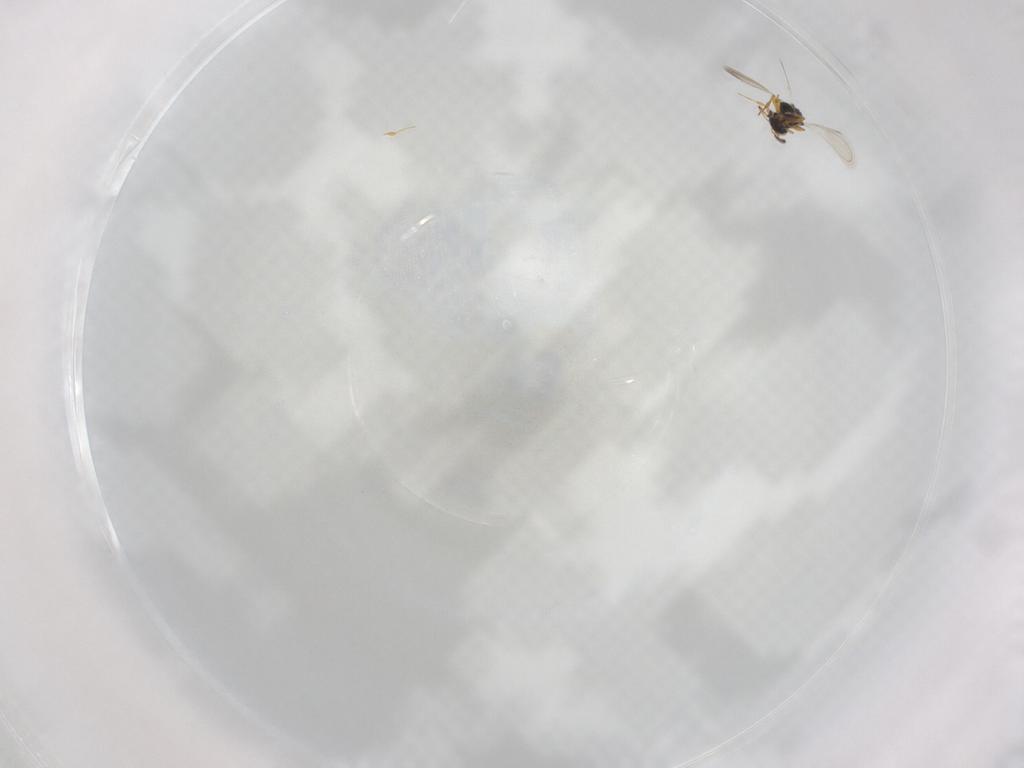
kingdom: Animalia
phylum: Arthropoda
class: Insecta
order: Hymenoptera
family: Platygastridae
